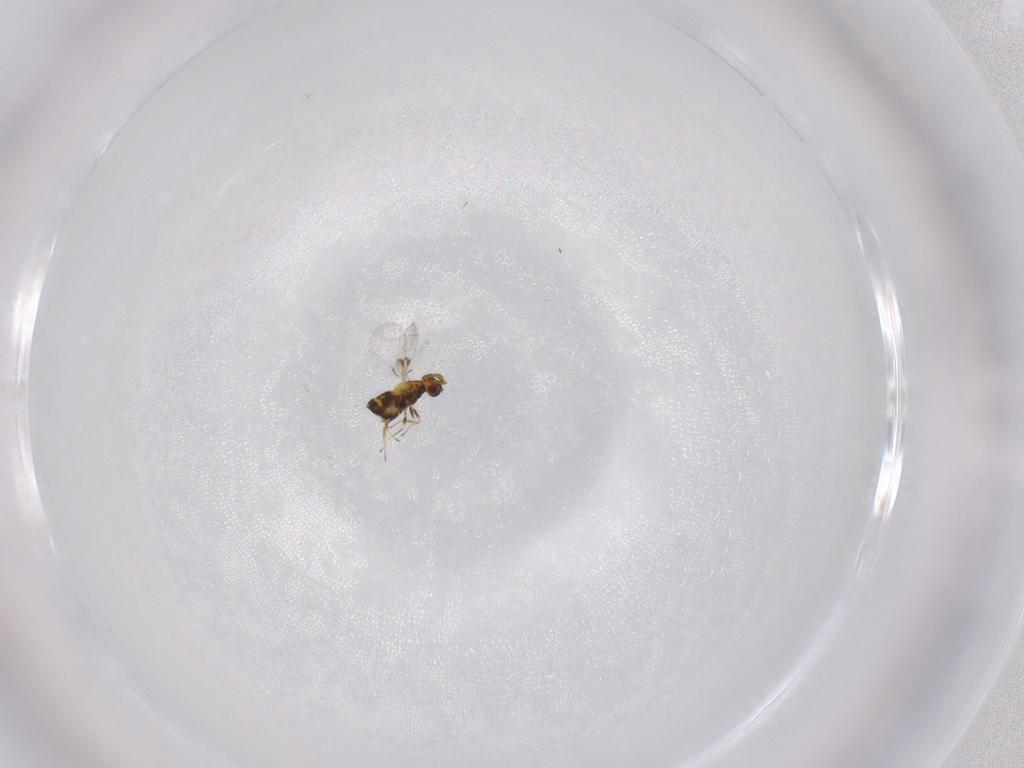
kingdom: Animalia
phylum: Arthropoda
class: Insecta
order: Hymenoptera
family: Trichogrammatidae
